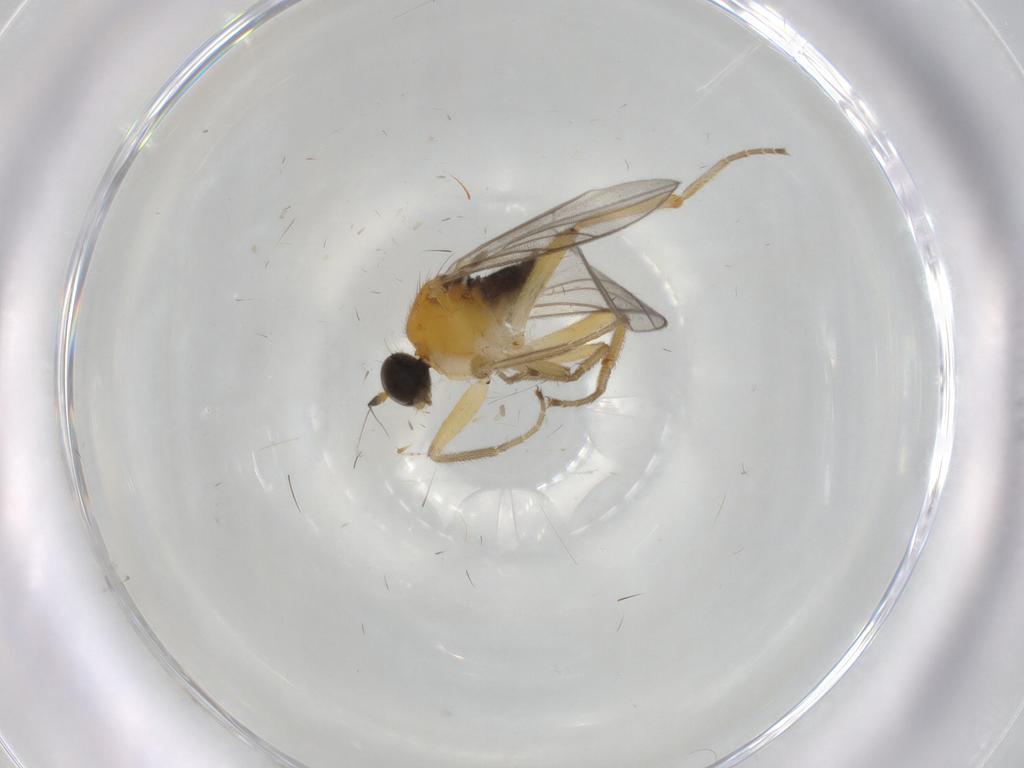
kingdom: Animalia
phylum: Arthropoda
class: Insecta
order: Diptera
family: Hybotidae
